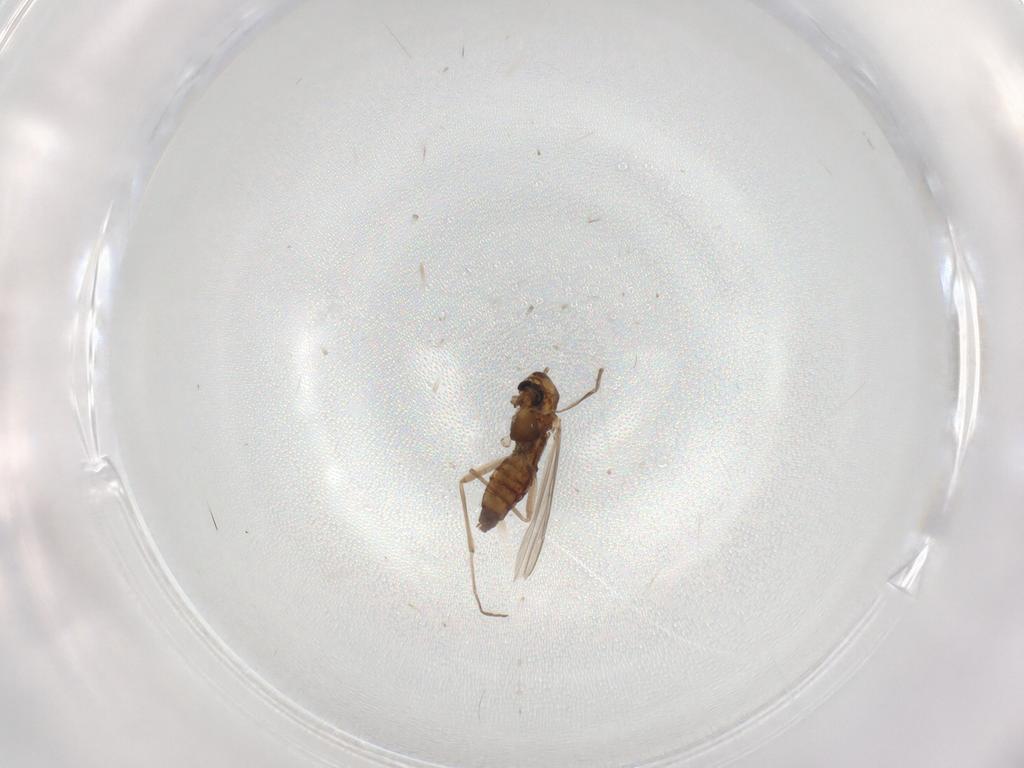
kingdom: Animalia
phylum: Arthropoda
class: Insecta
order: Diptera
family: Chironomidae
